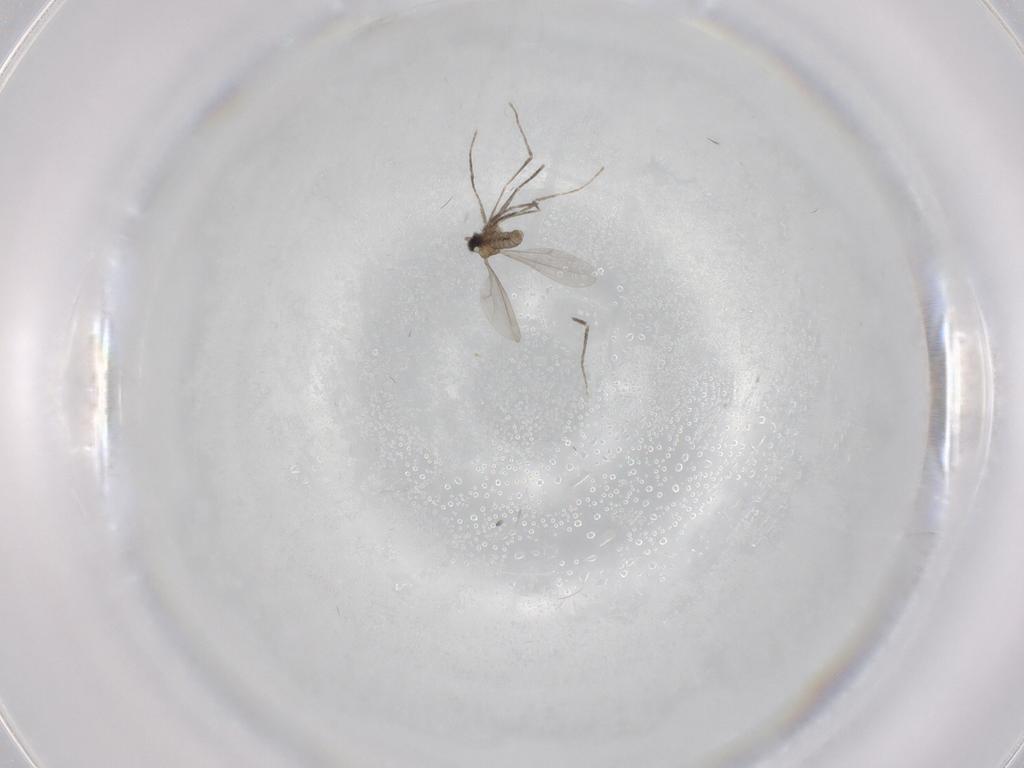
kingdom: Animalia
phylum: Arthropoda
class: Insecta
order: Diptera
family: Cecidomyiidae
